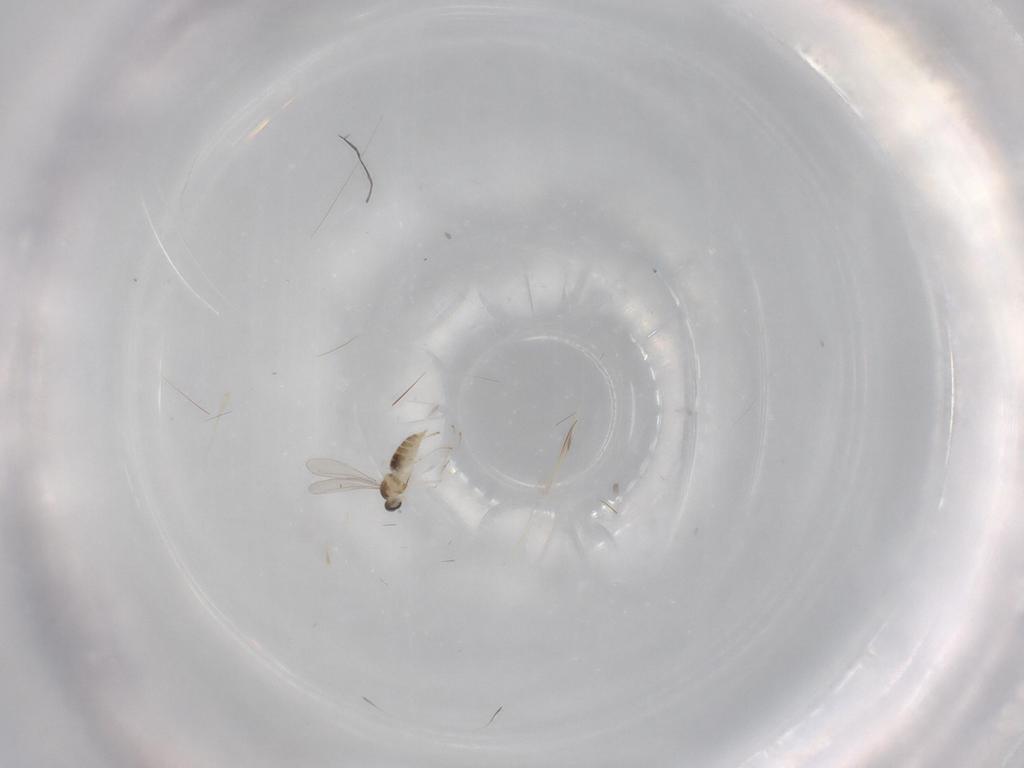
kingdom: Animalia
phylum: Arthropoda
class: Insecta
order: Diptera
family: Cecidomyiidae
